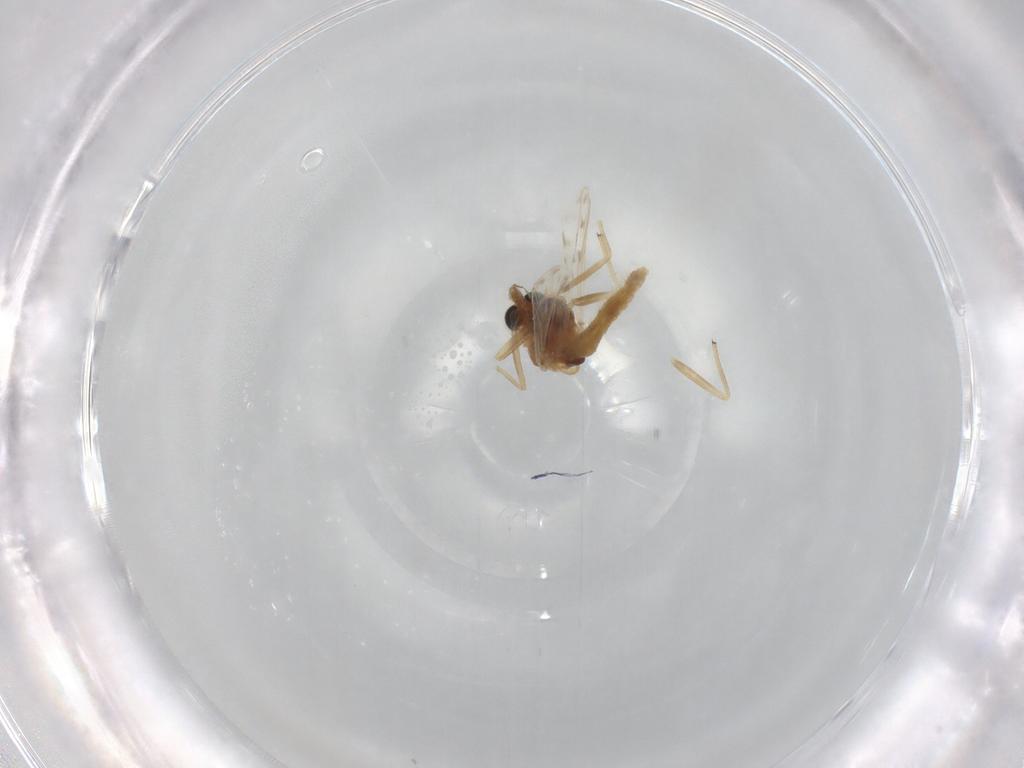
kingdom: Animalia
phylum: Arthropoda
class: Insecta
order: Diptera
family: Chironomidae
